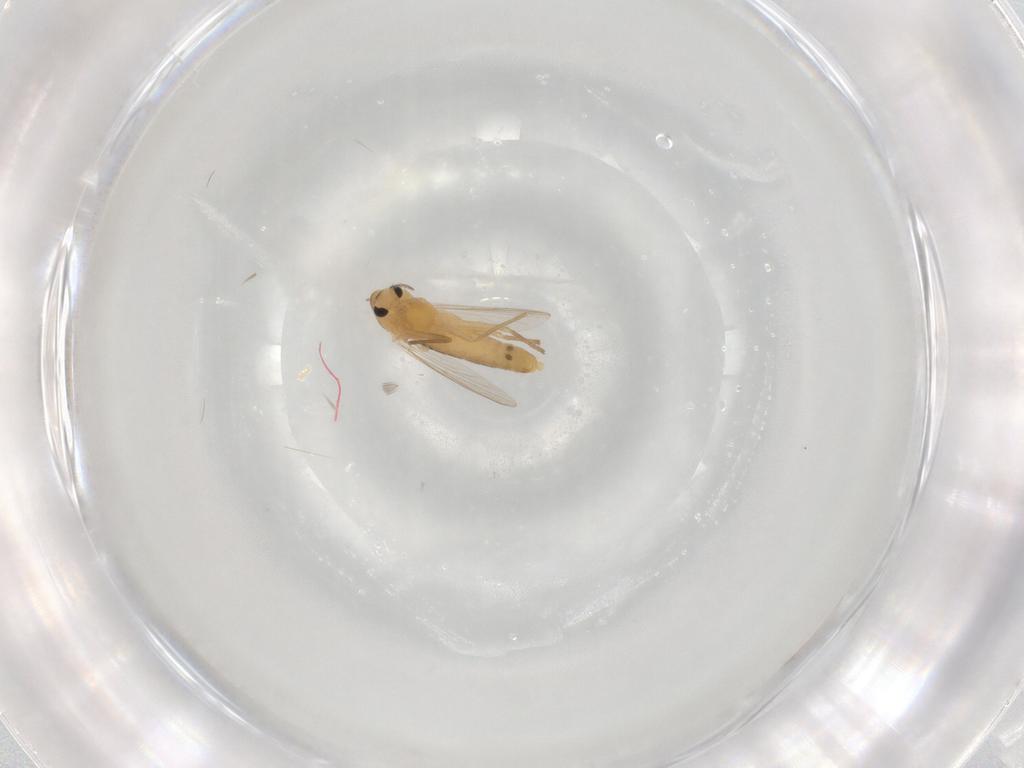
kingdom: Animalia
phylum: Arthropoda
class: Insecta
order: Diptera
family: Chironomidae
